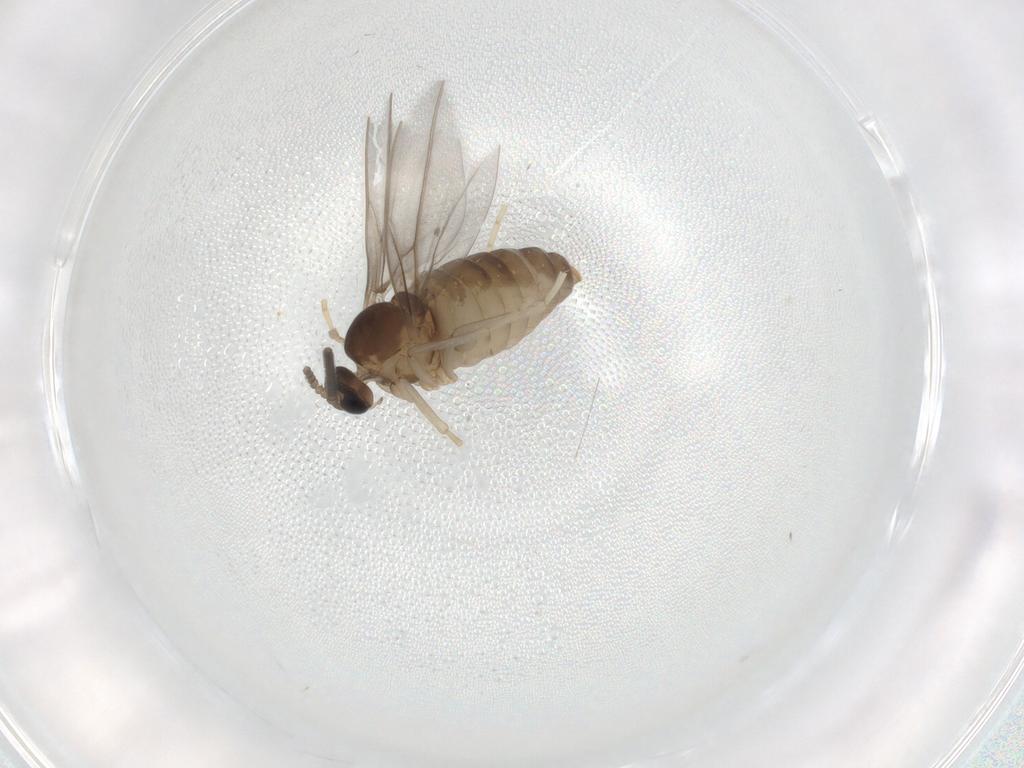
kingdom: Animalia
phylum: Arthropoda
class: Insecta
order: Diptera
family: Cecidomyiidae
